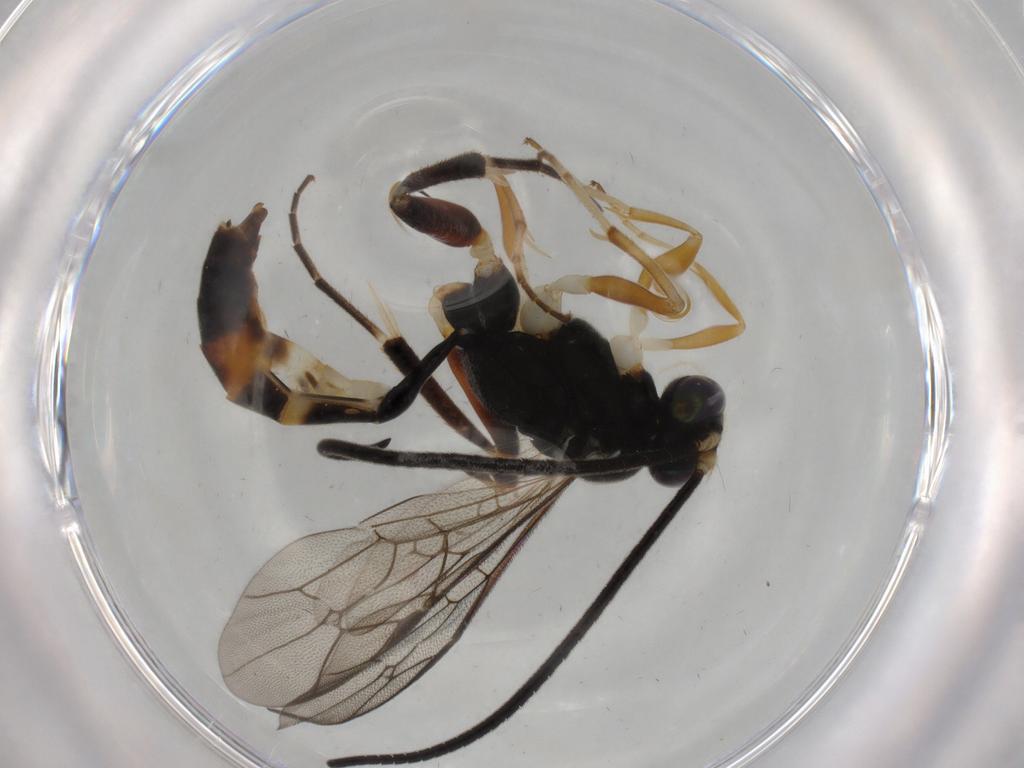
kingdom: Animalia
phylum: Arthropoda
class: Insecta
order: Hymenoptera
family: Scelionidae
